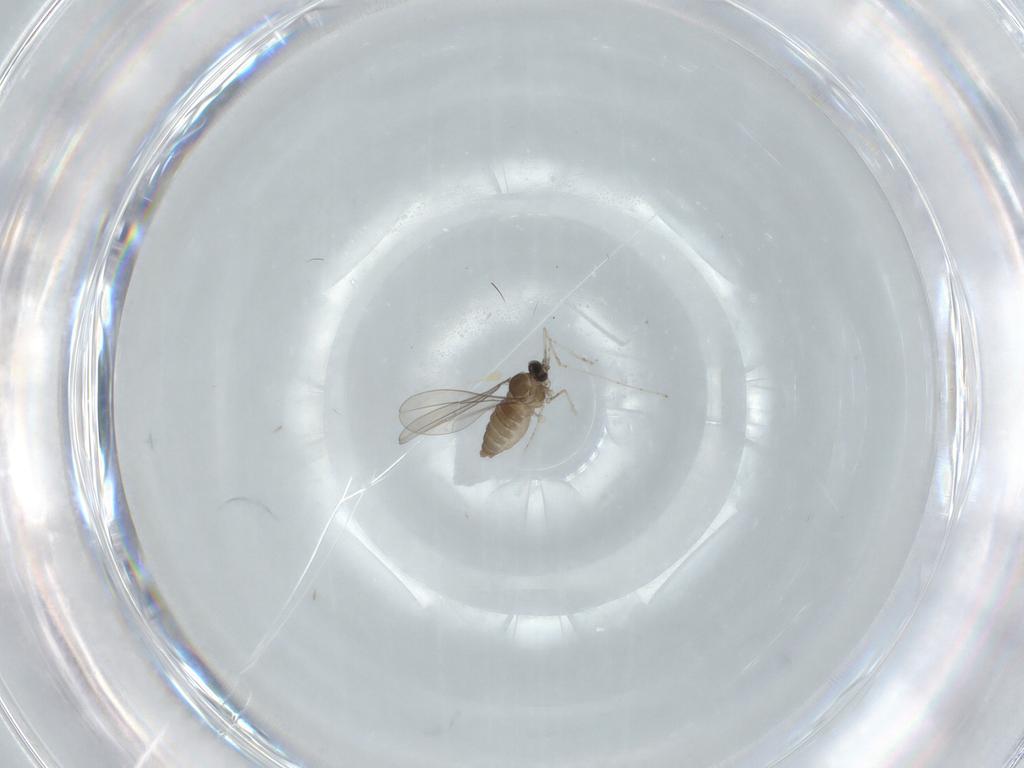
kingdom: Animalia
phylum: Arthropoda
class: Insecta
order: Diptera
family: Cecidomyiidae
